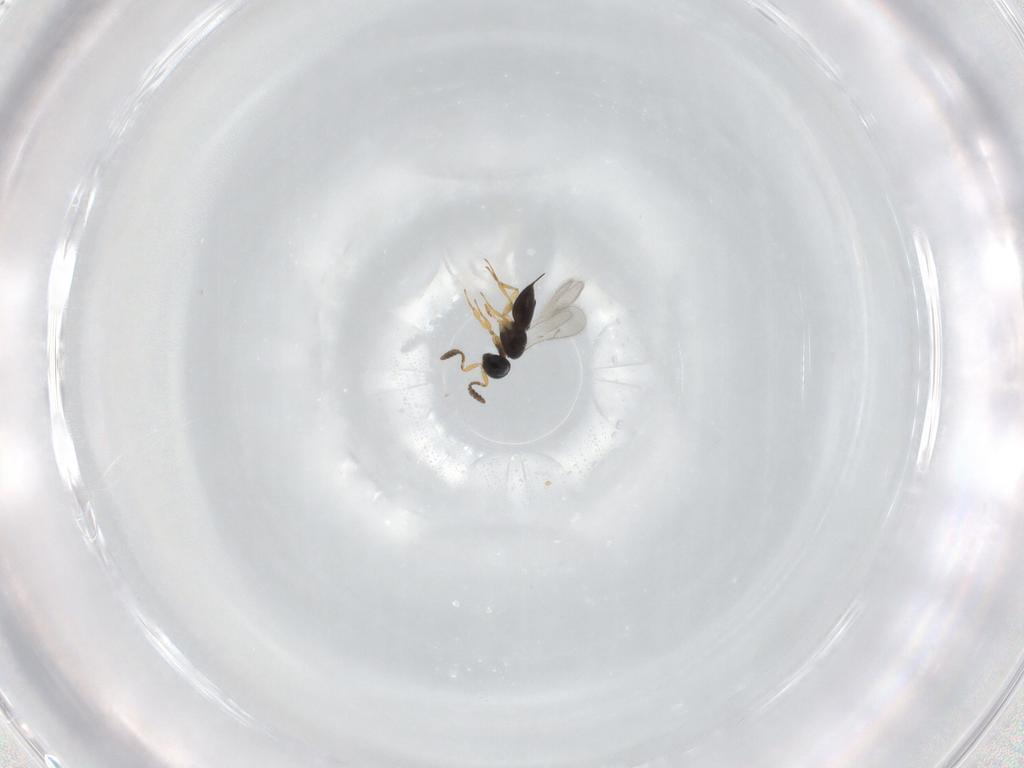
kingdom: Animalia
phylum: Arthropoda
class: Insecta
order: Hymenoptera
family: Scelionidae
